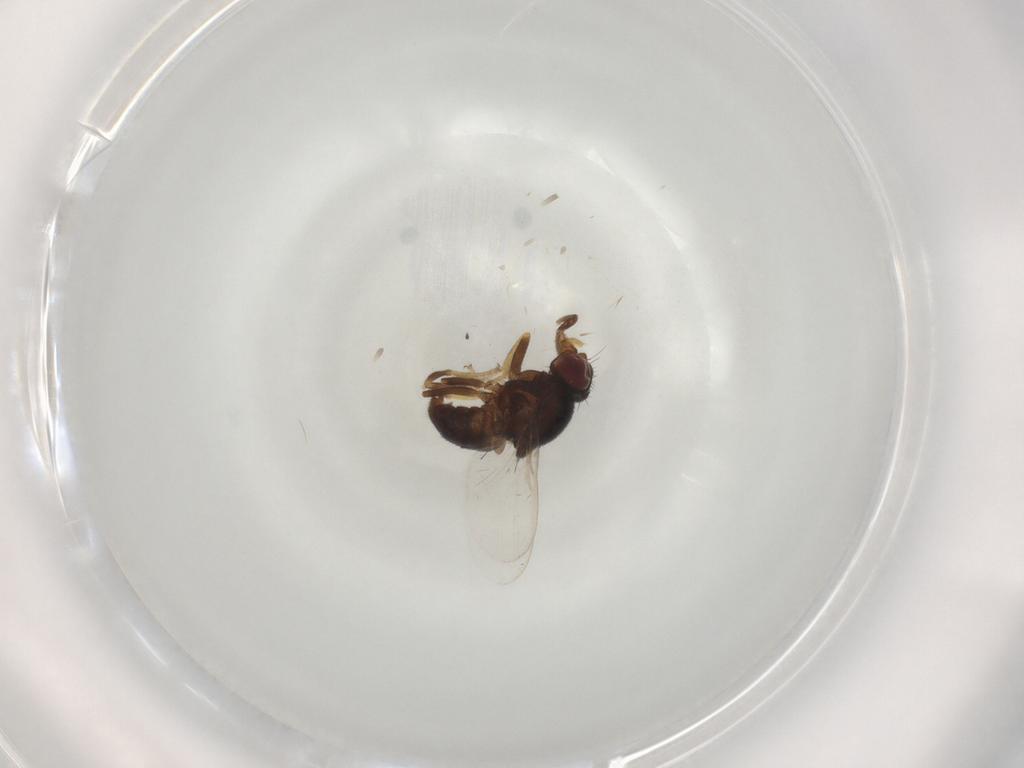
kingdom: Animalia
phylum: Arthropoda
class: Insecta
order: Diptera
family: Chloropidae
